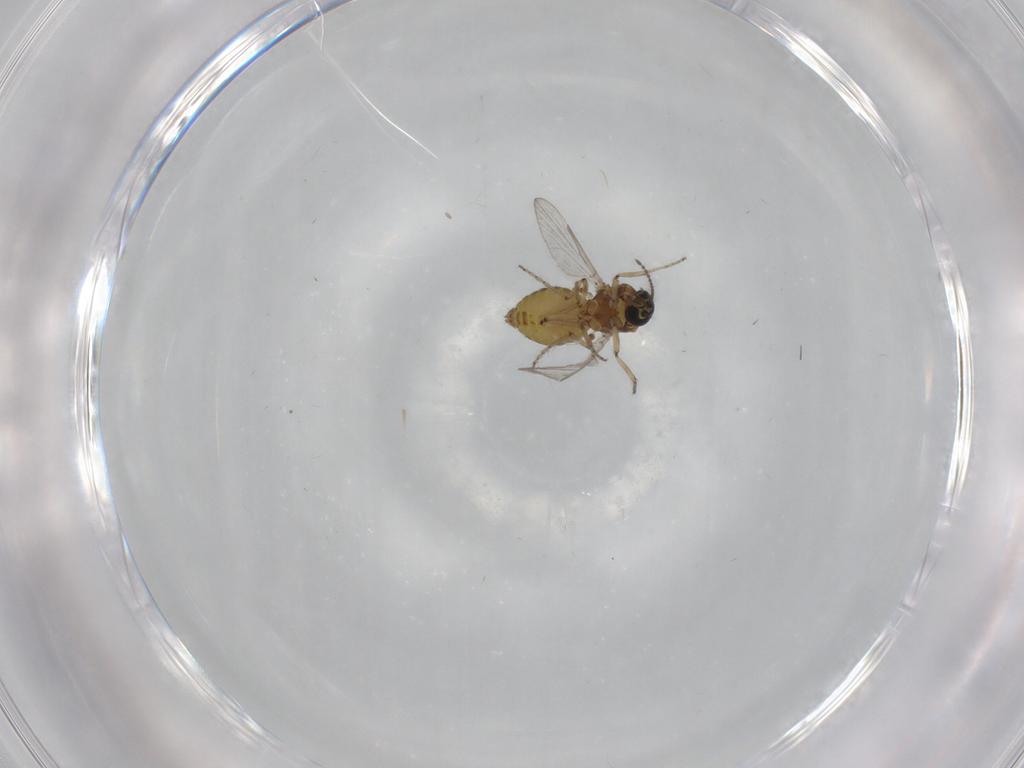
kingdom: Animalia
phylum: Arthropoda
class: Insecta
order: Diptera
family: Ceratopogonidae
